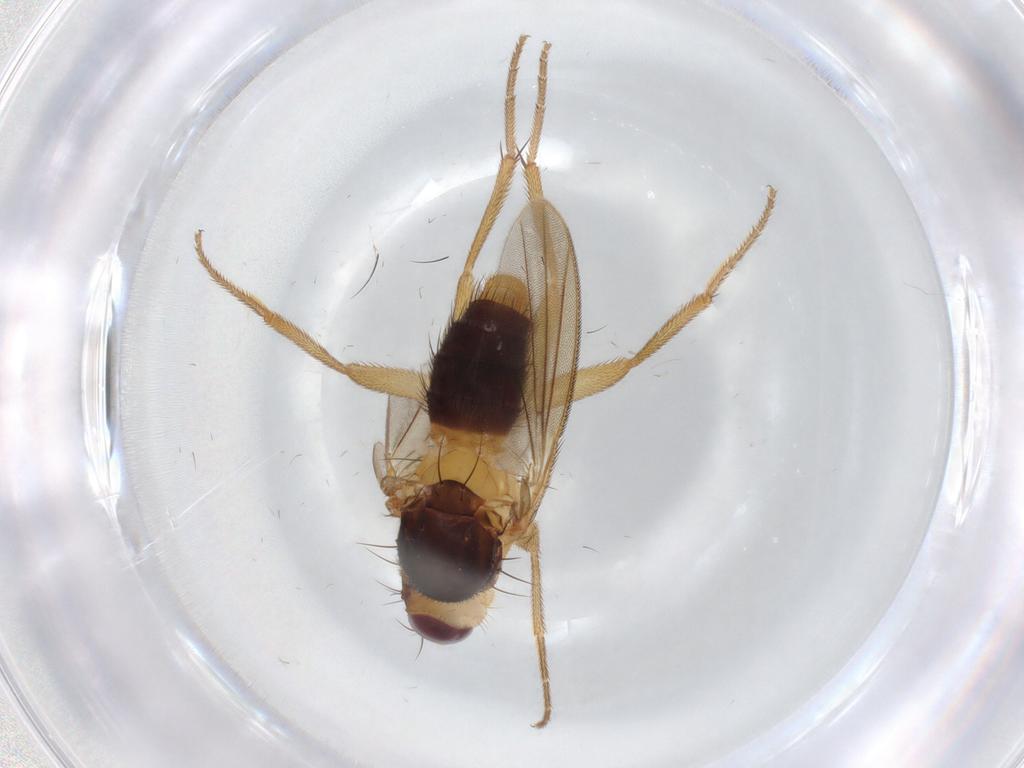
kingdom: Animalia
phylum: Arthropoda
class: Insecta
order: Diptera
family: Clusiidae
